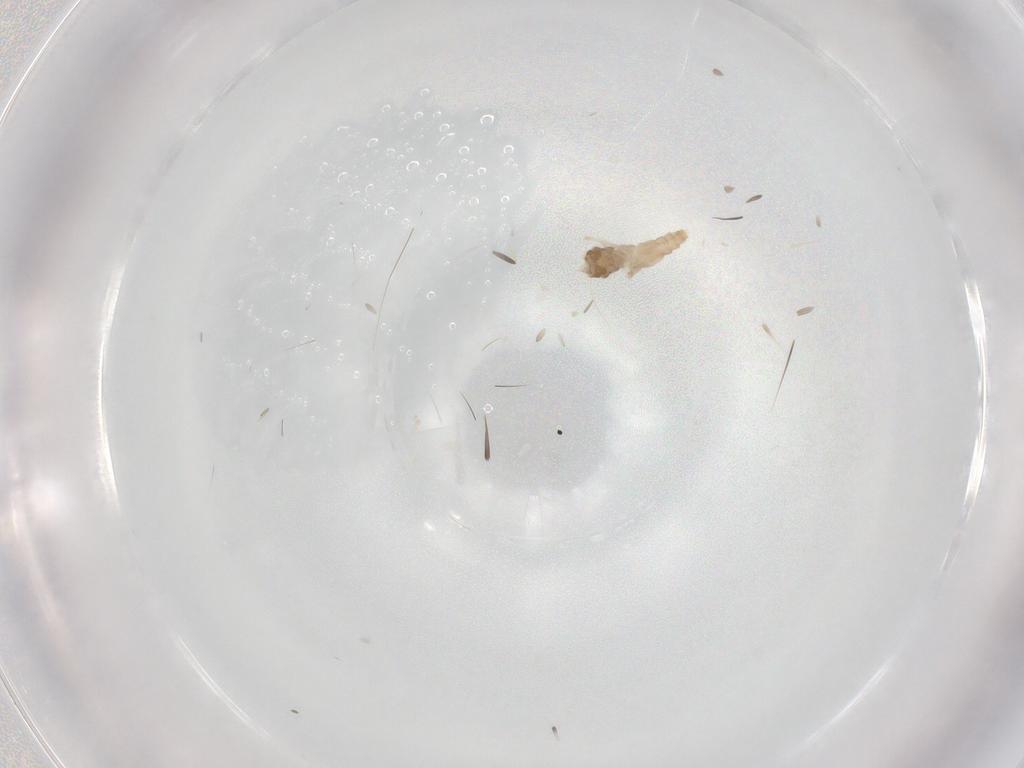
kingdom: Animalia
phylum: Arthropoda
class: Insecta
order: Diptera
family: Cecidomyiidae
